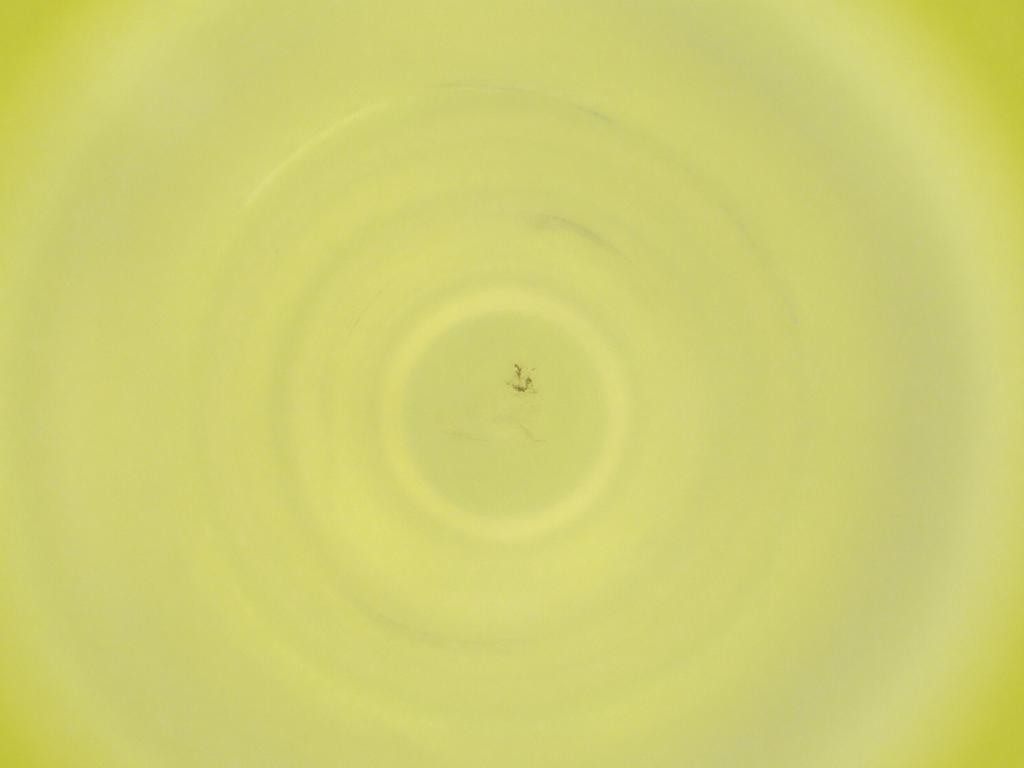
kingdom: Animalia
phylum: Arthropoda
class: Insecta
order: Diptera
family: Cecidomyiidae
